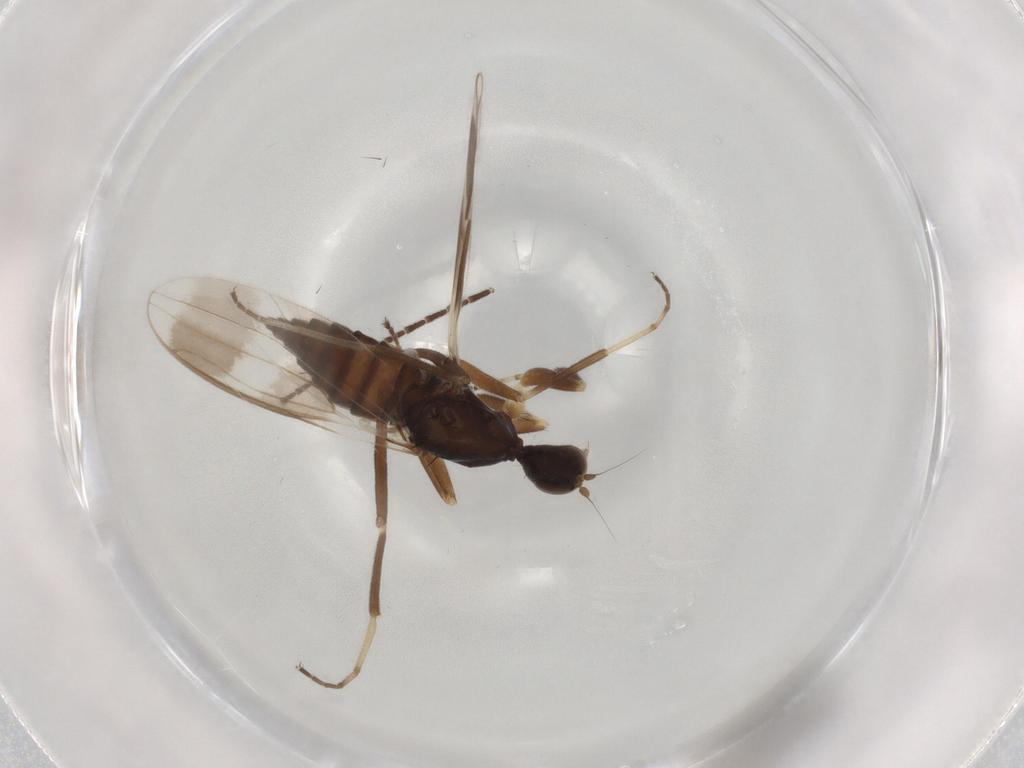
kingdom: Animalia
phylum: Arthropoda
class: Insecta
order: Diptera
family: Hybotidae
